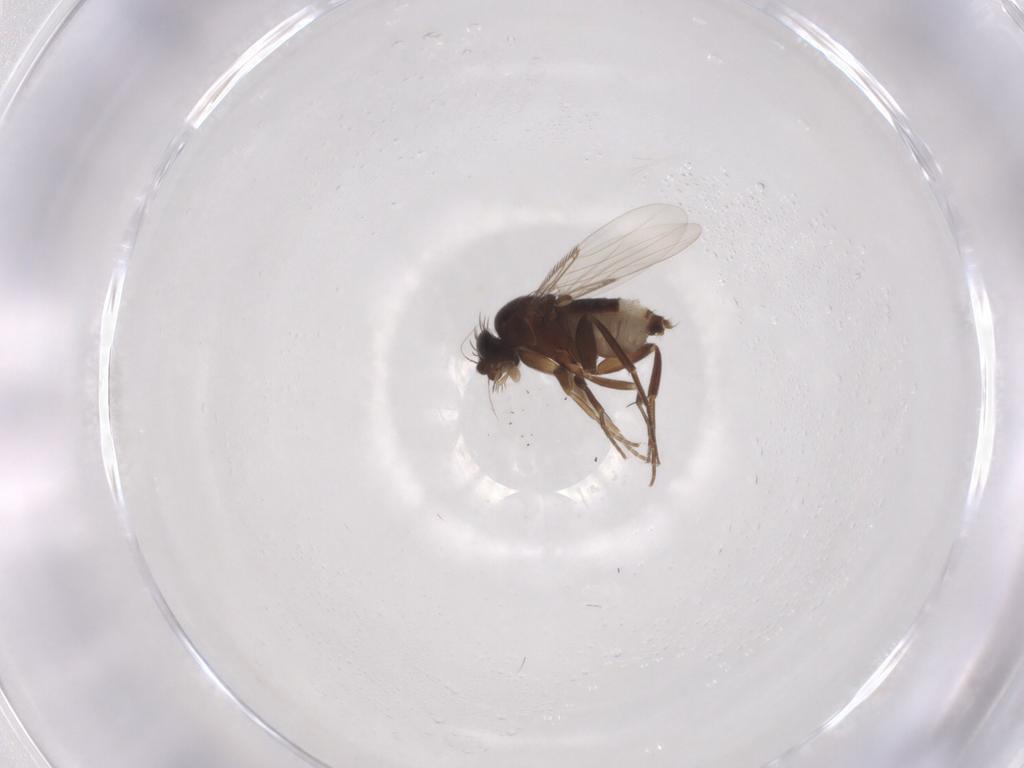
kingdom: Animalia
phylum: Arthropoda
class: Insecta
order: Diptera
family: Phoridae
